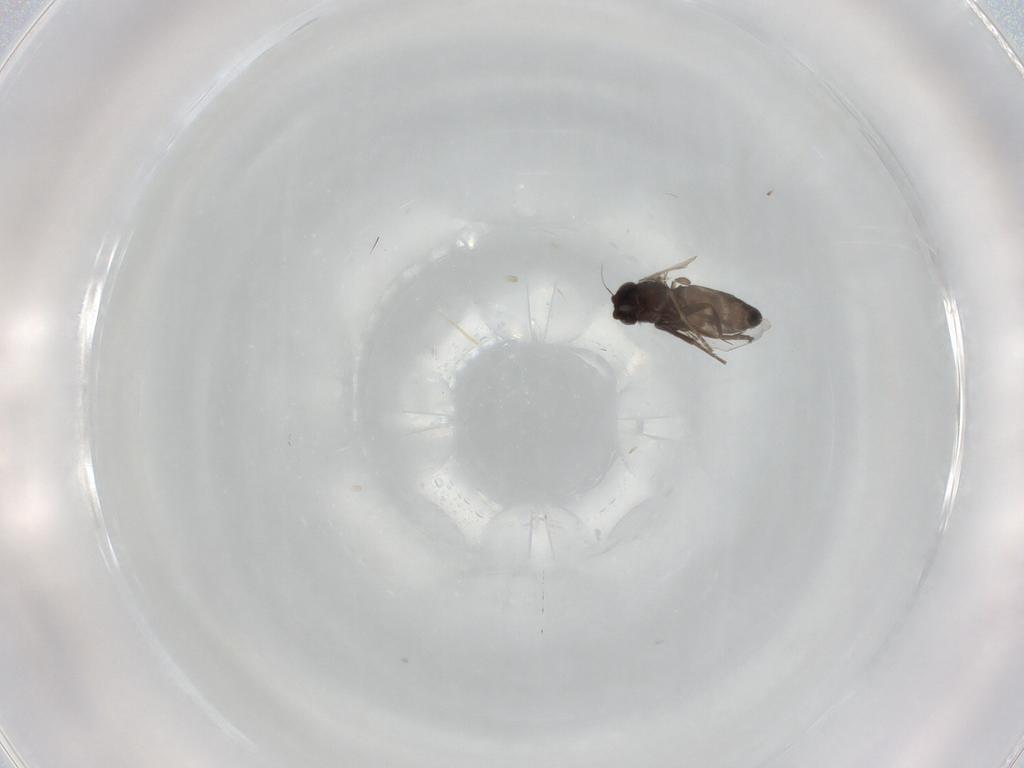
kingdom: Animalia
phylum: Arthropoda
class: Insecta
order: Diptera
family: Phoridae
